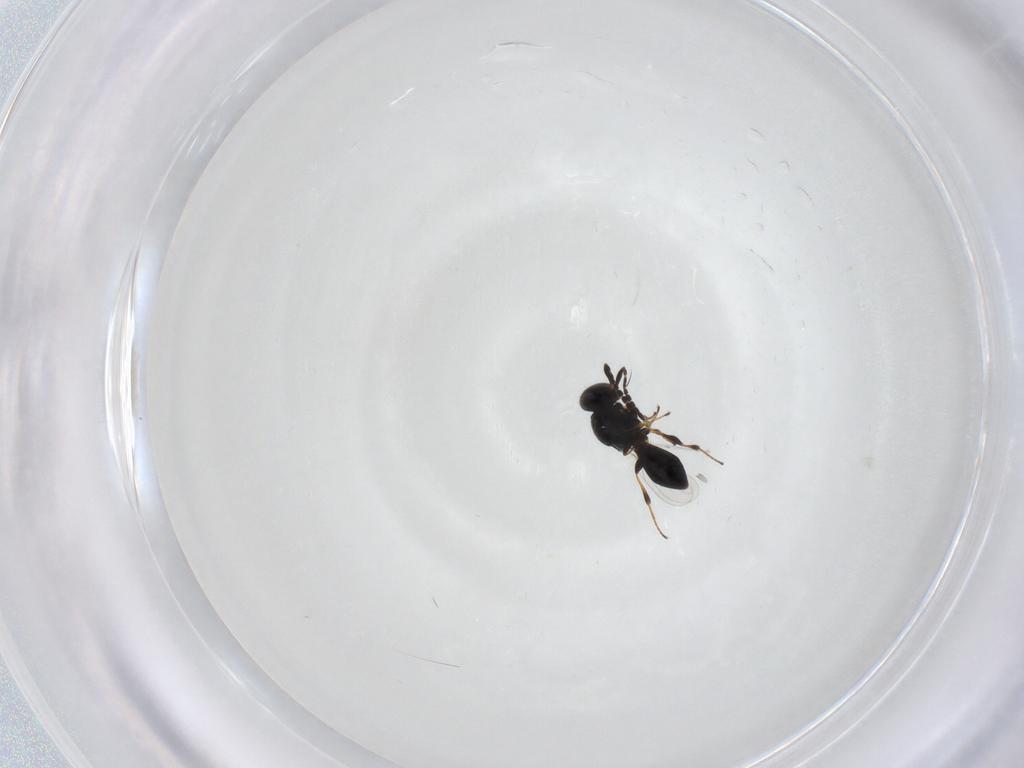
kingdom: Animalia
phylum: Arthropoda
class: Insecta
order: Hymenoptera
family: Platygastridae
